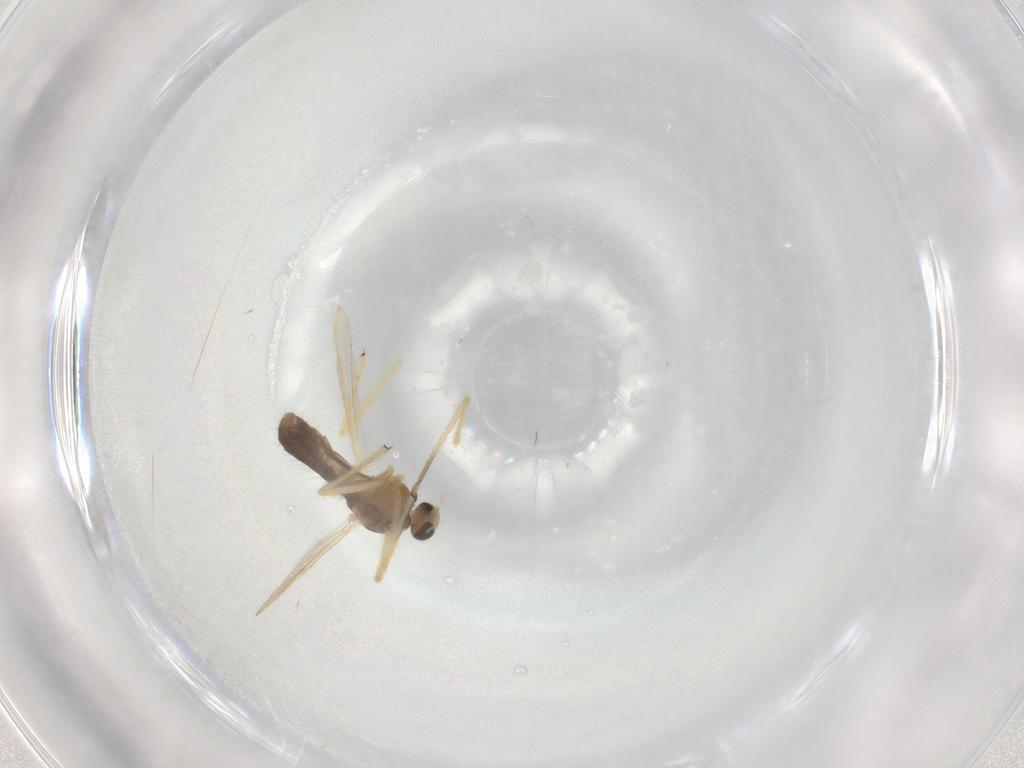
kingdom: Animalia
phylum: Arthropoda
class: Insecta
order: Diptera
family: Chironomidae
